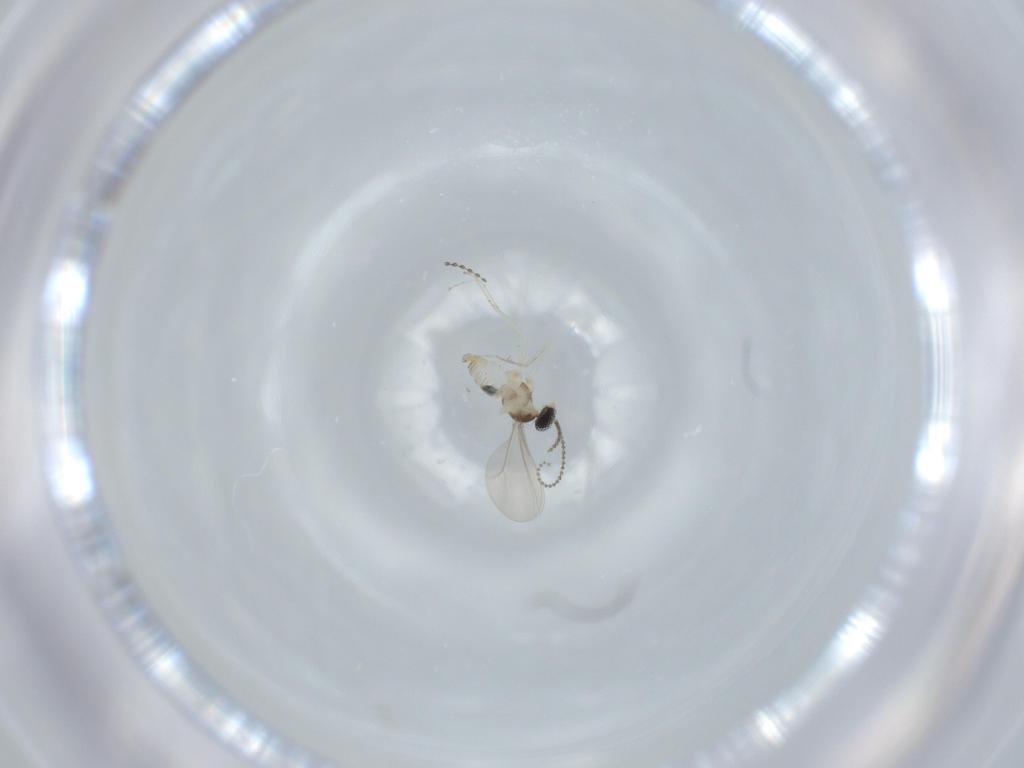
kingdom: Animalia
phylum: Arthropoda
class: Insecta
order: Diptera
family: Cecidomyiidae
